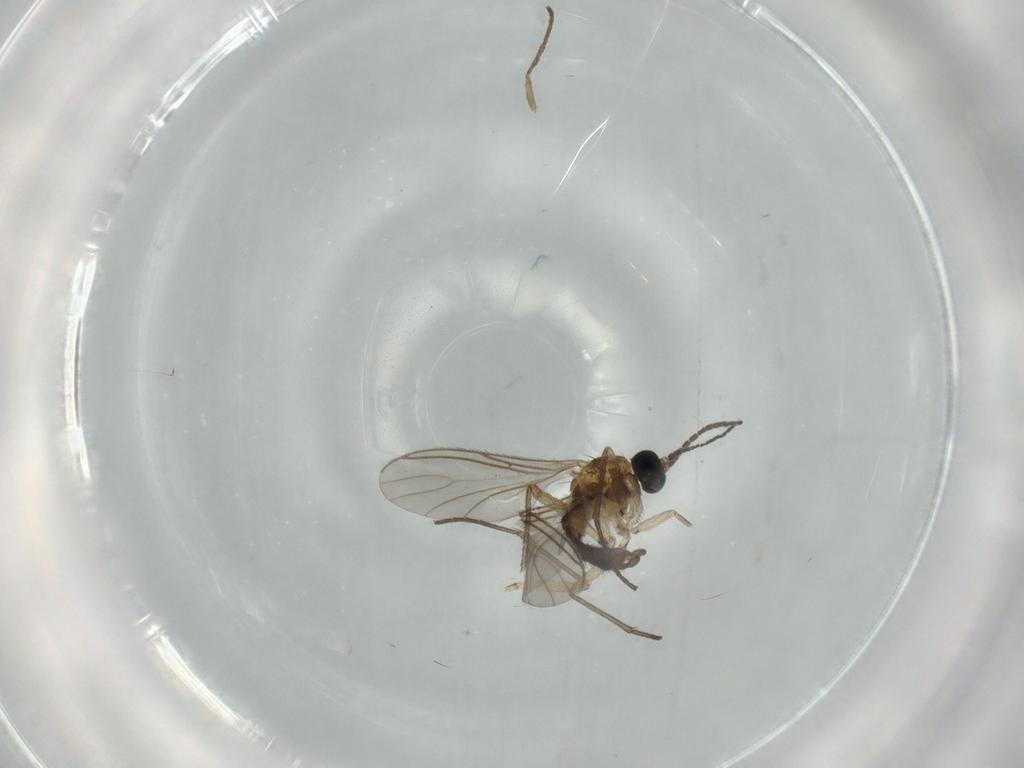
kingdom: Animalia
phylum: Arthropoda
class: Insecta
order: Diptera
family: Sciaridae
